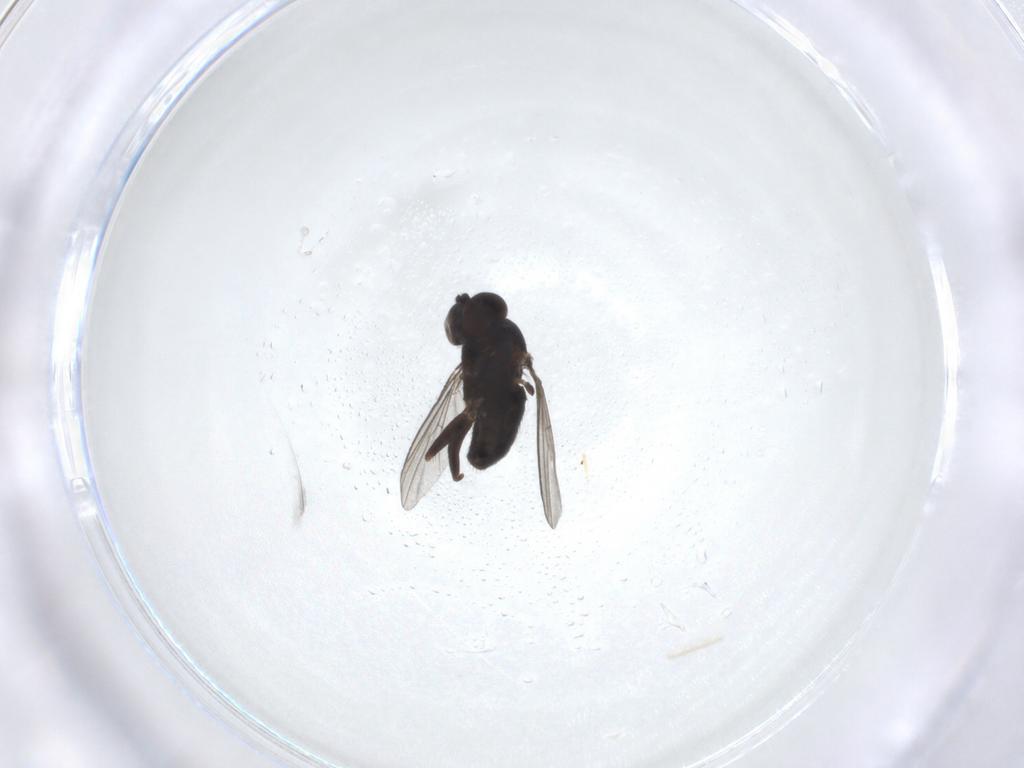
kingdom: Animalia
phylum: Arthropoda
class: Insecta
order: Diptera
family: Dolichopodidae
